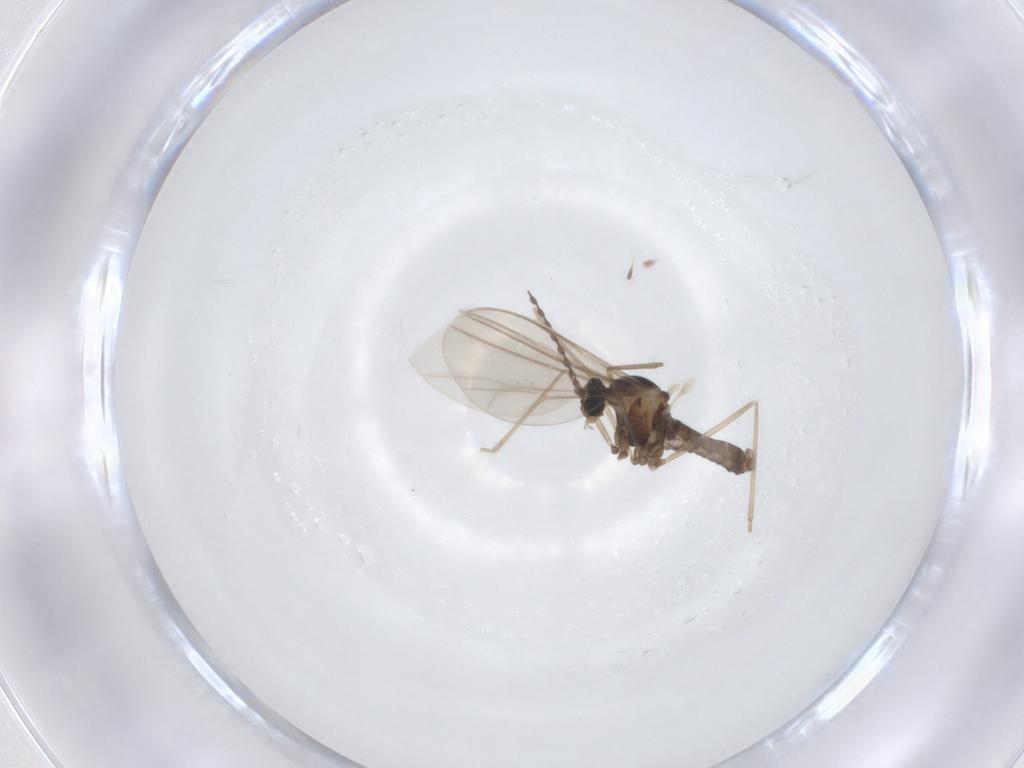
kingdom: Animalia
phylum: Arthropoda
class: Insecta
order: Diptera
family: Cecidomyiidae
